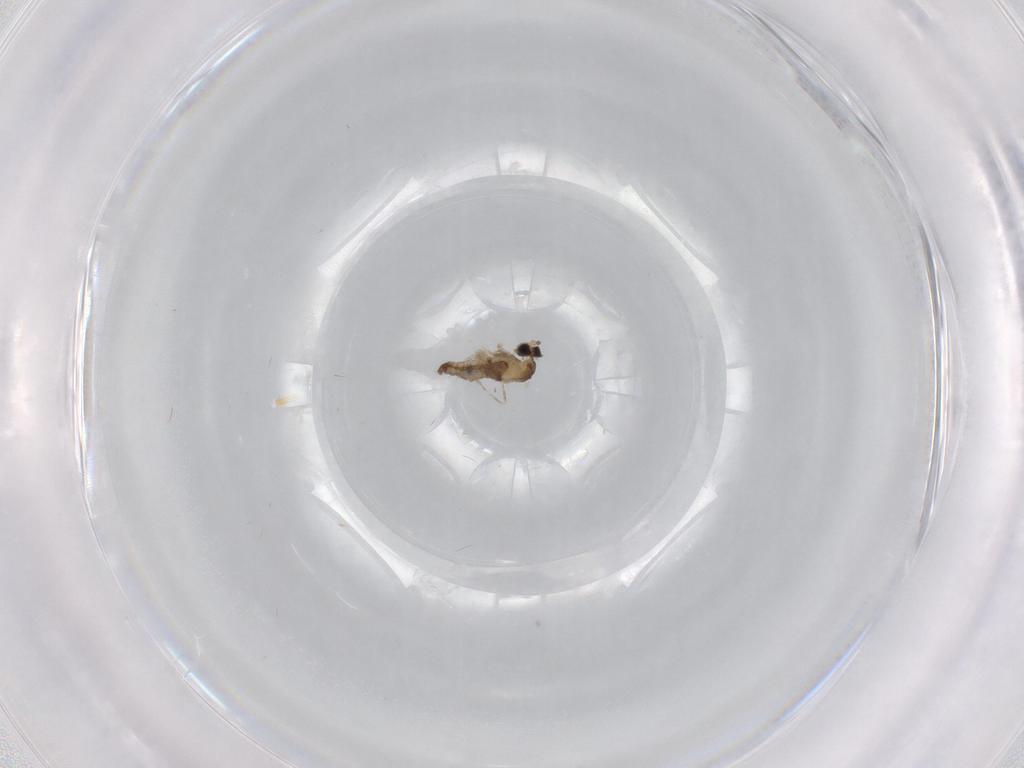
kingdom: Animalia
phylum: Arthropoda
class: Insecta
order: Diptera
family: Cecidomyiidae
